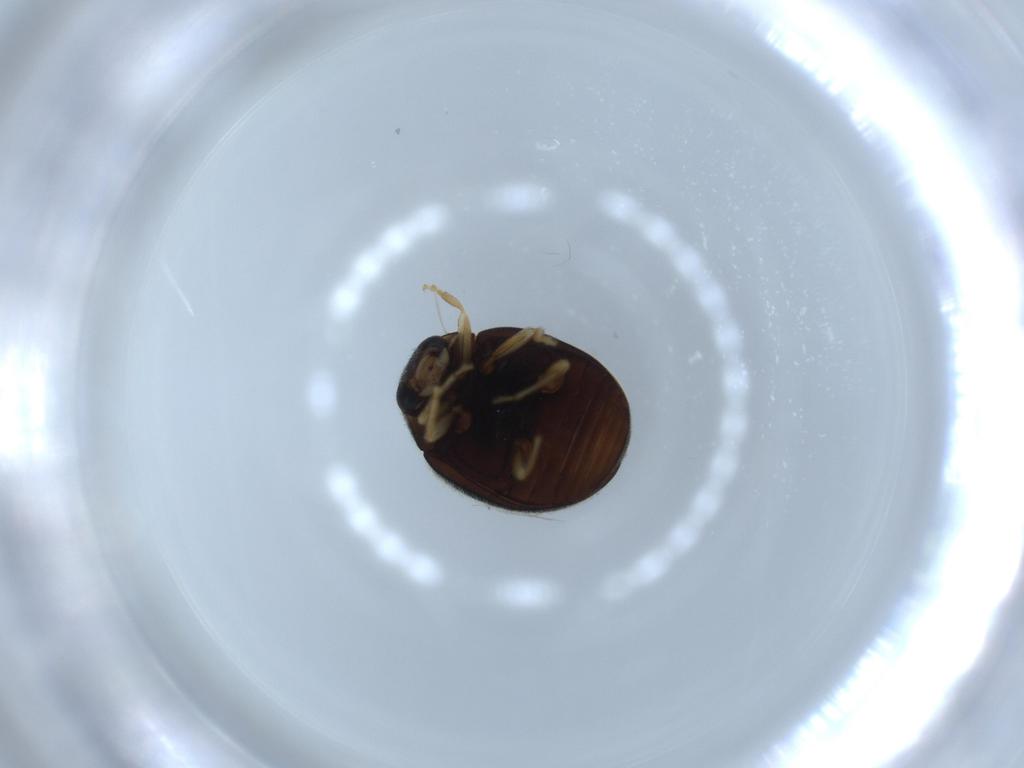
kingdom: Animalia
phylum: Arthropoda
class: Insecta
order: Coleoptera
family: Coccinellidae
